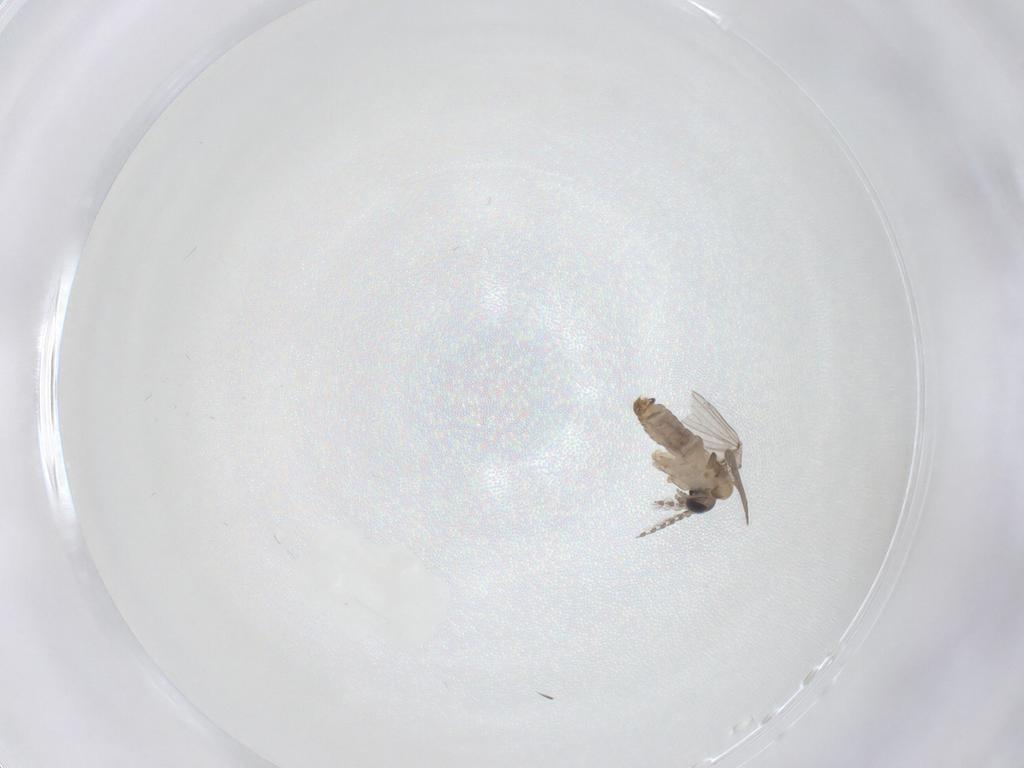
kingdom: Animalia
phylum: Arthropoda
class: Insecta
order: Diptera
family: Psychodidae
